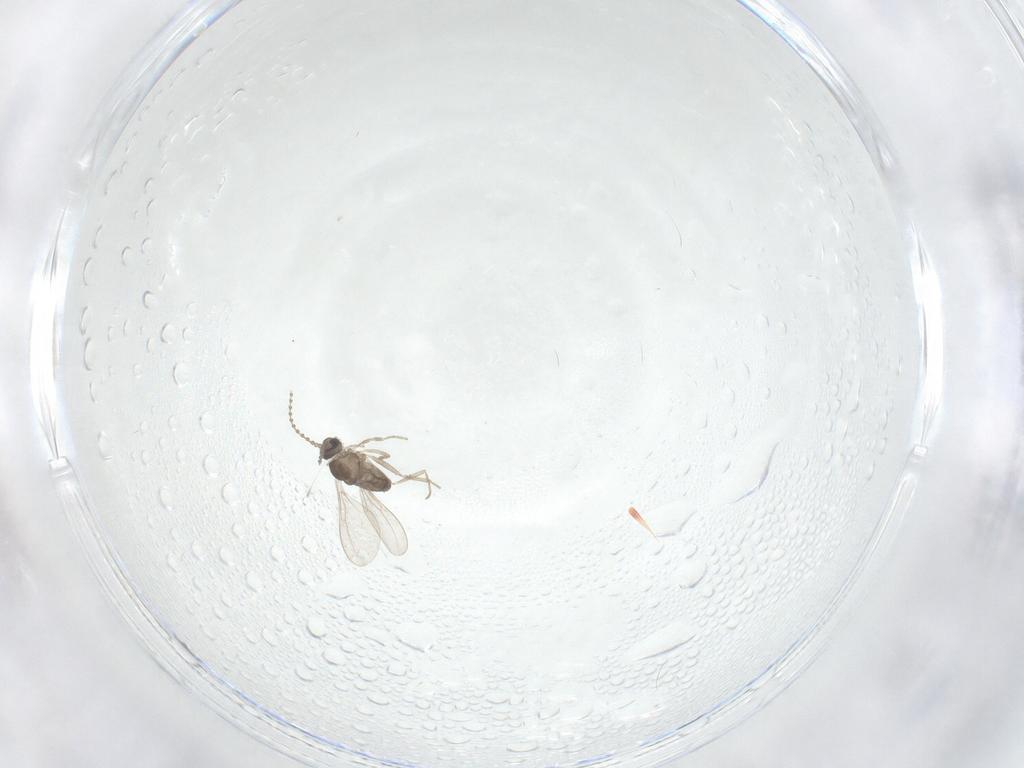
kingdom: Animalia
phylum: Arthropoda
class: Insecta
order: Diptera
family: Cecidomyiidae
